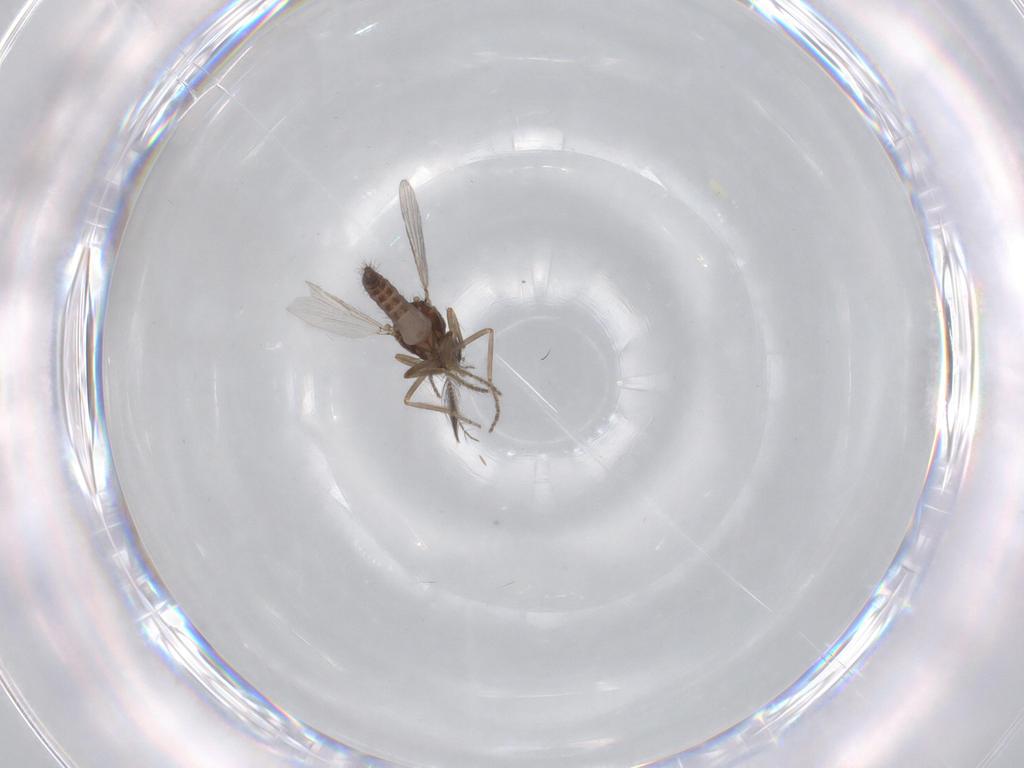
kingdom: Animalia
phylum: Arthropoda
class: Insecta
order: Diptera
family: Ceratopogonidae
